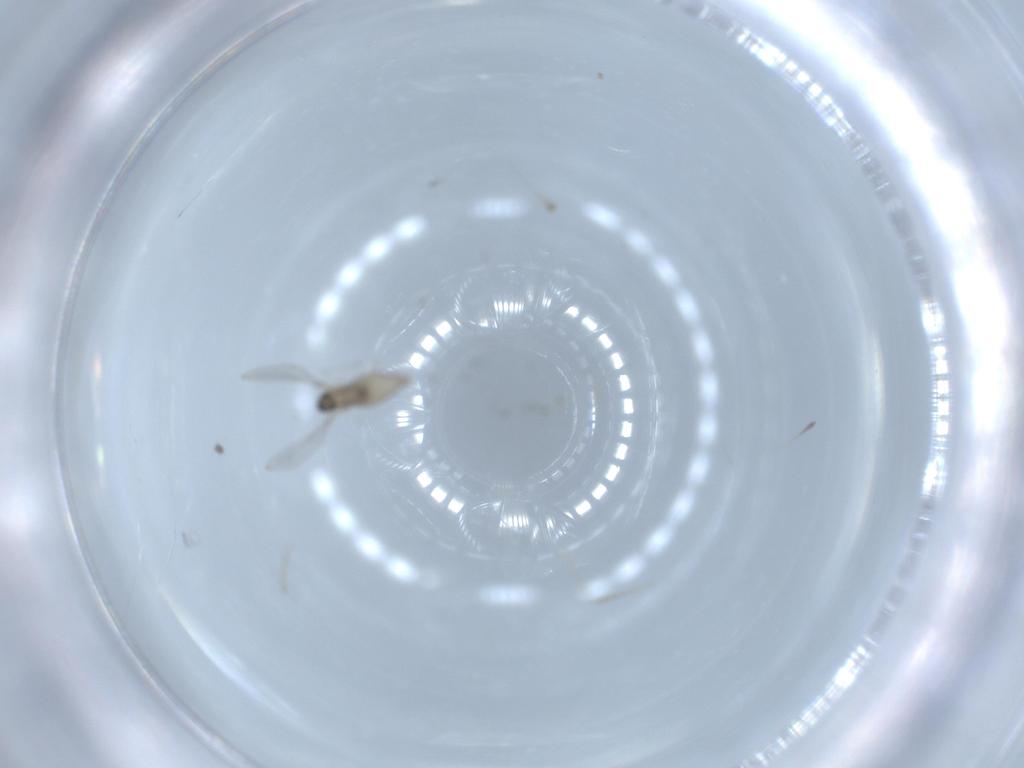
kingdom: Animalia
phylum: Arthropoda
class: Insecta
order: Diptera
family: Cecidomyiidae
